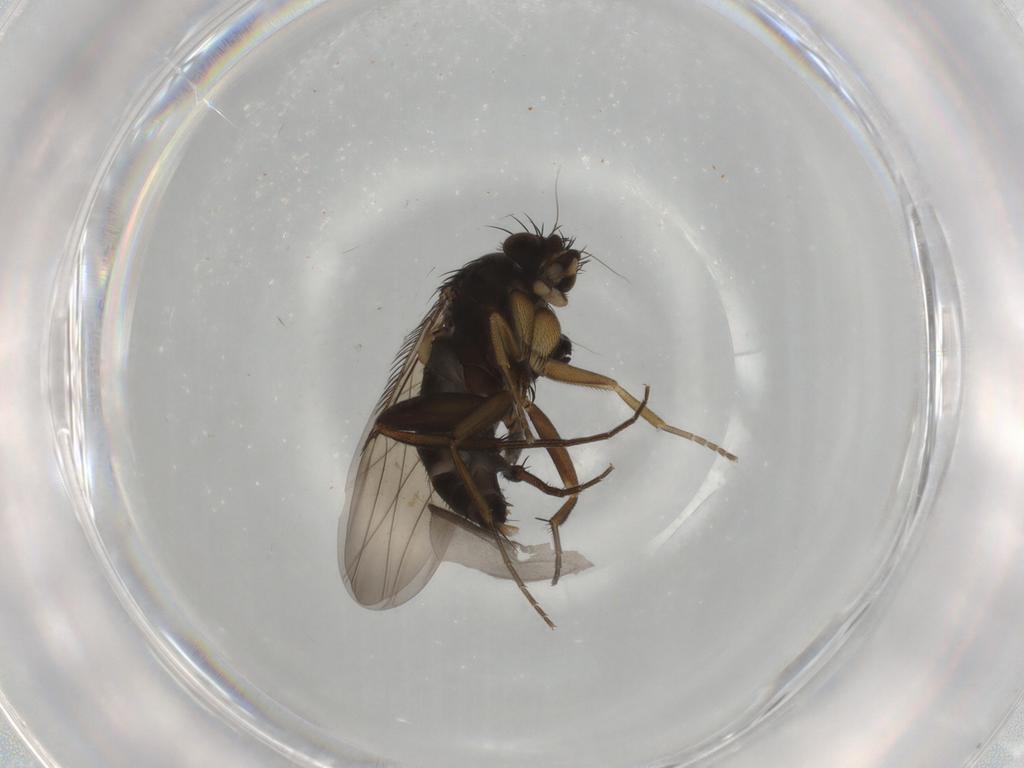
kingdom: Animalia
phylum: Arthropoda
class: Insecta
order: Diptera
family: Phoridae
